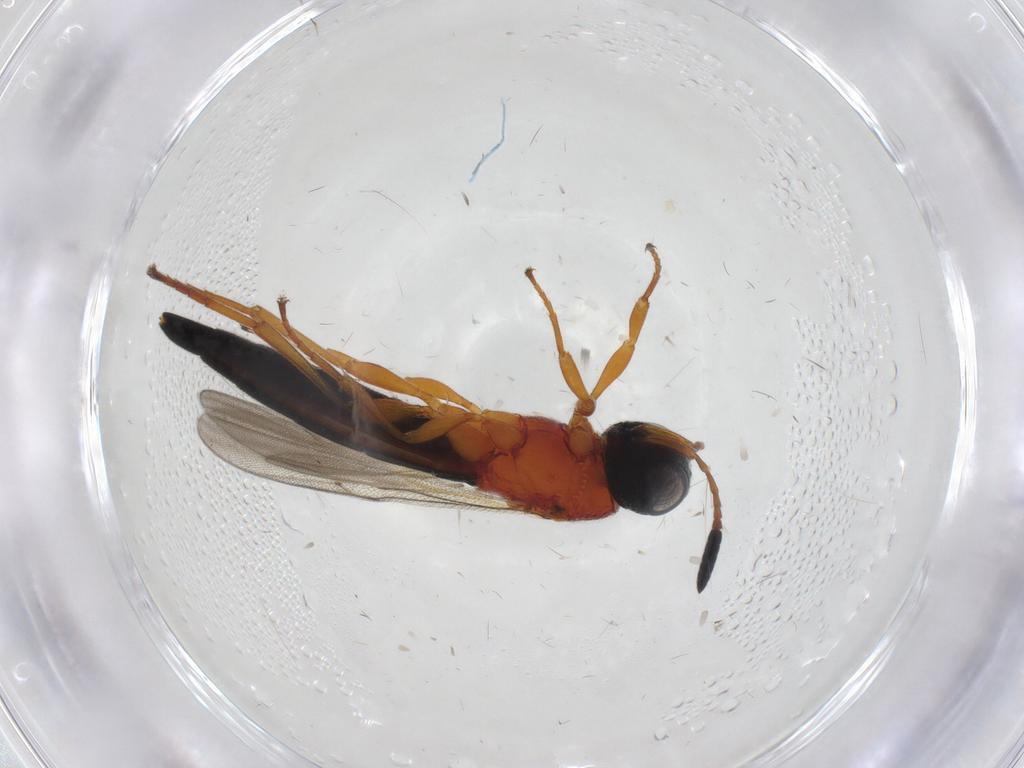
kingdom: Animalia
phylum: Arthropoda
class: Insecta
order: Hymenoptera
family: Scelionidae
